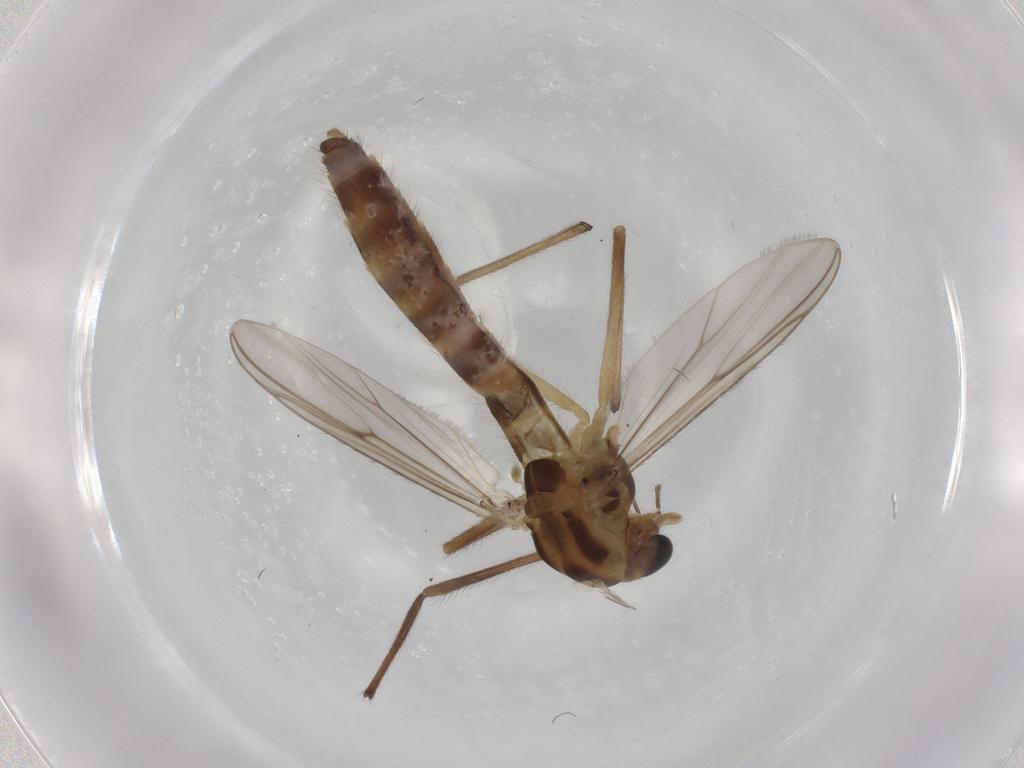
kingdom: Animalia
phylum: Arthropoda
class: Insecta
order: Diptera
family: Chironomidae
